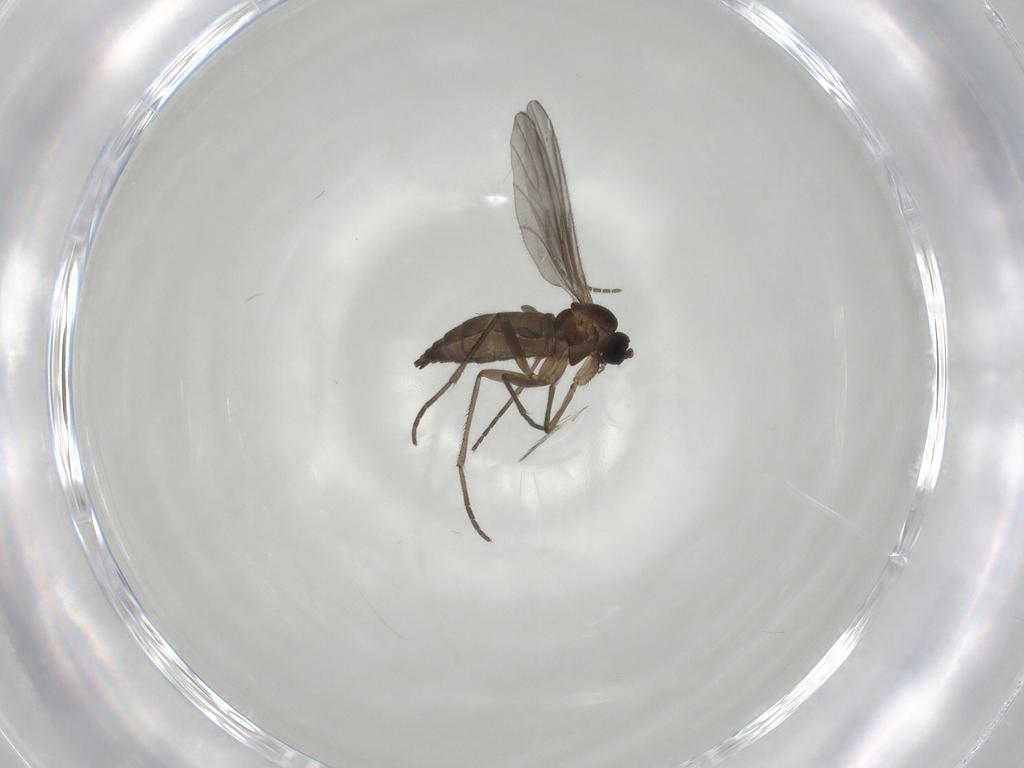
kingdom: Animalia
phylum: Arthropoda
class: Insecta
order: Diptera
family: Sciaridae
